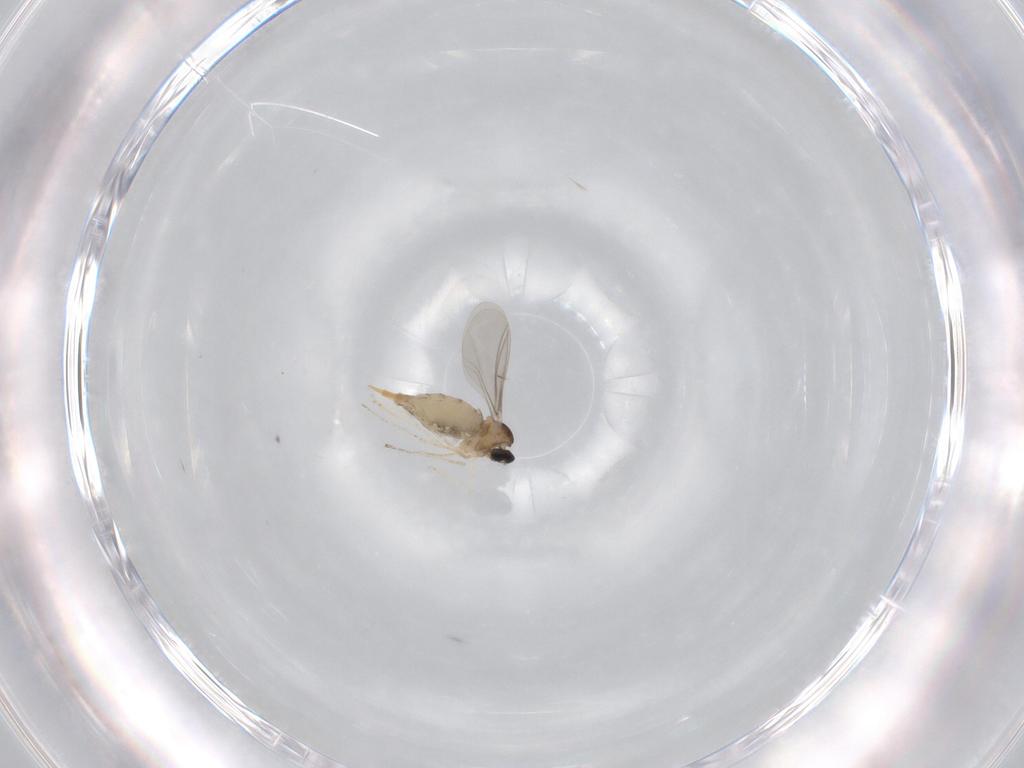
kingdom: Animalia
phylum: Arthropoda
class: Insecta
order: Diptera
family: Cecidomyiidae
